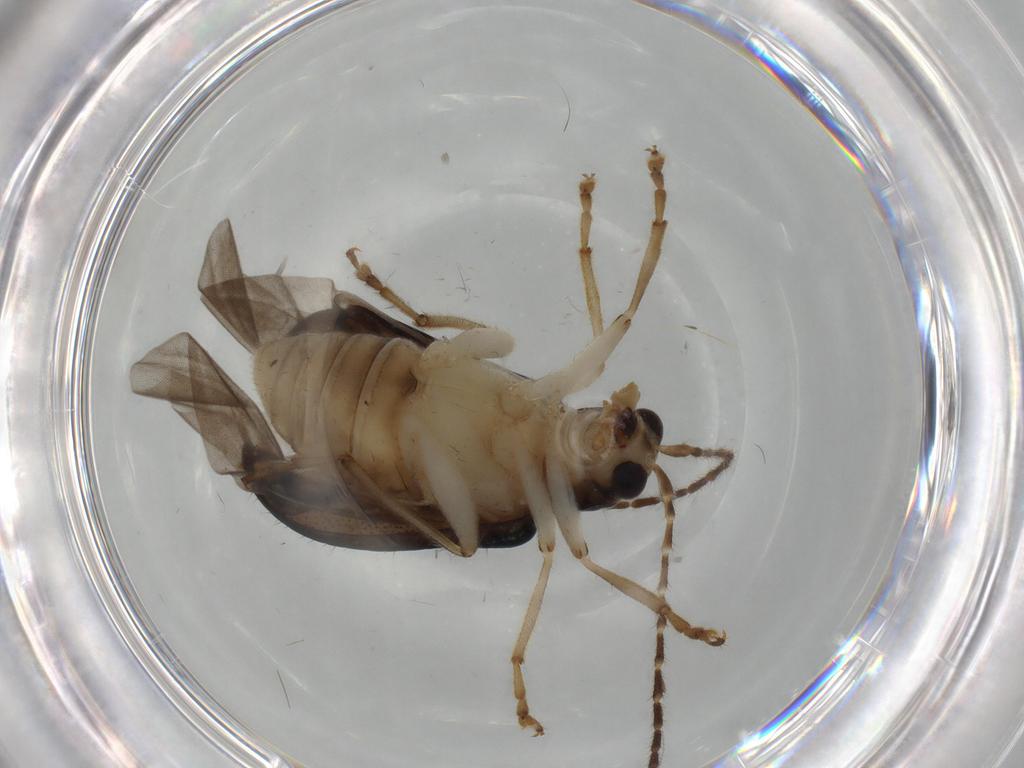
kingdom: Animalia
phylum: Arthropoda
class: Insecta
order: Coleoptera
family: Chrysomelidae
